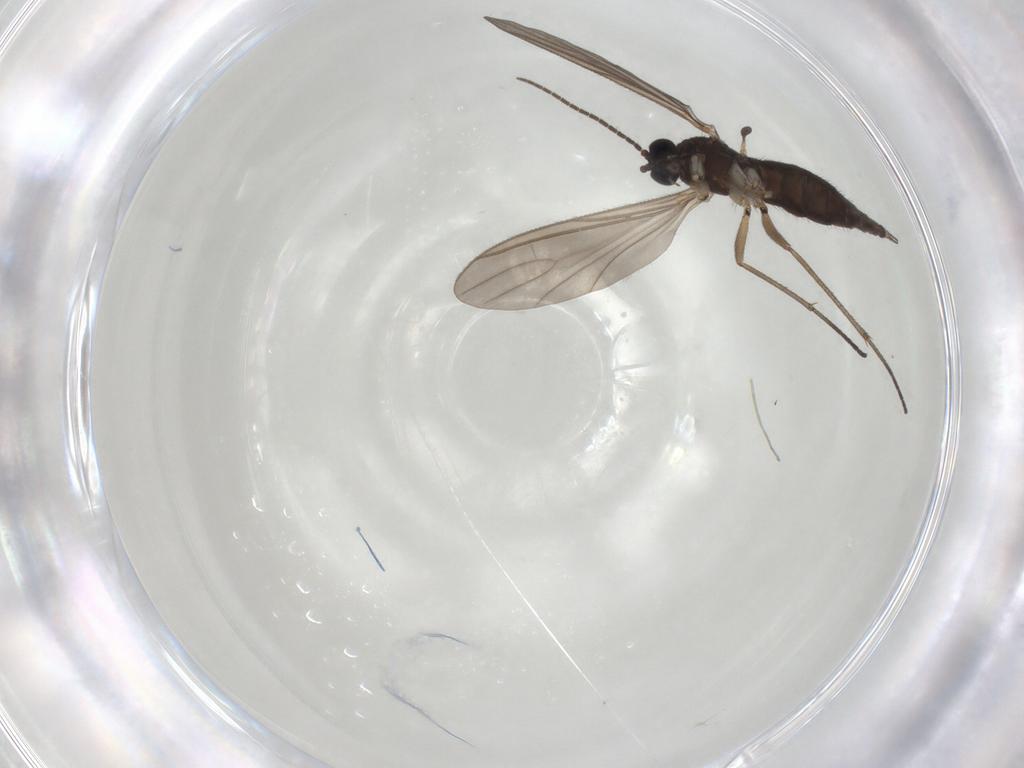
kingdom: Animalia
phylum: Arthropoda
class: Insecta
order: Diptera
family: Sciaridae
